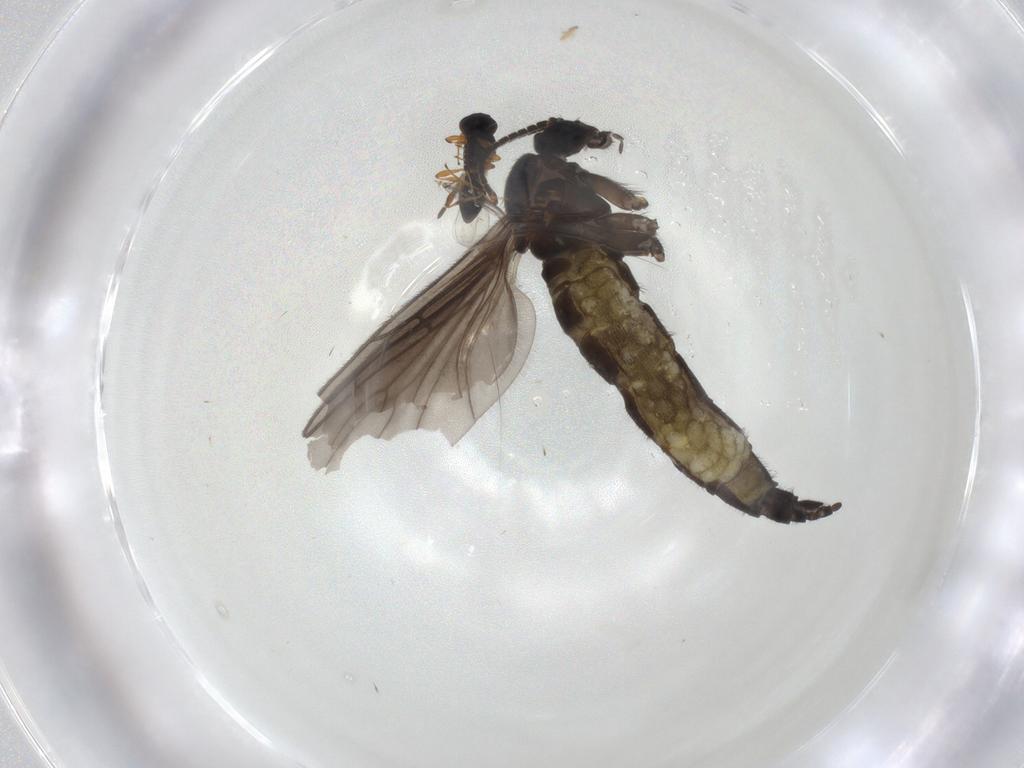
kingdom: Animalia
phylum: Arthropoda
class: Insecta
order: Diptera
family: Sciaridae
